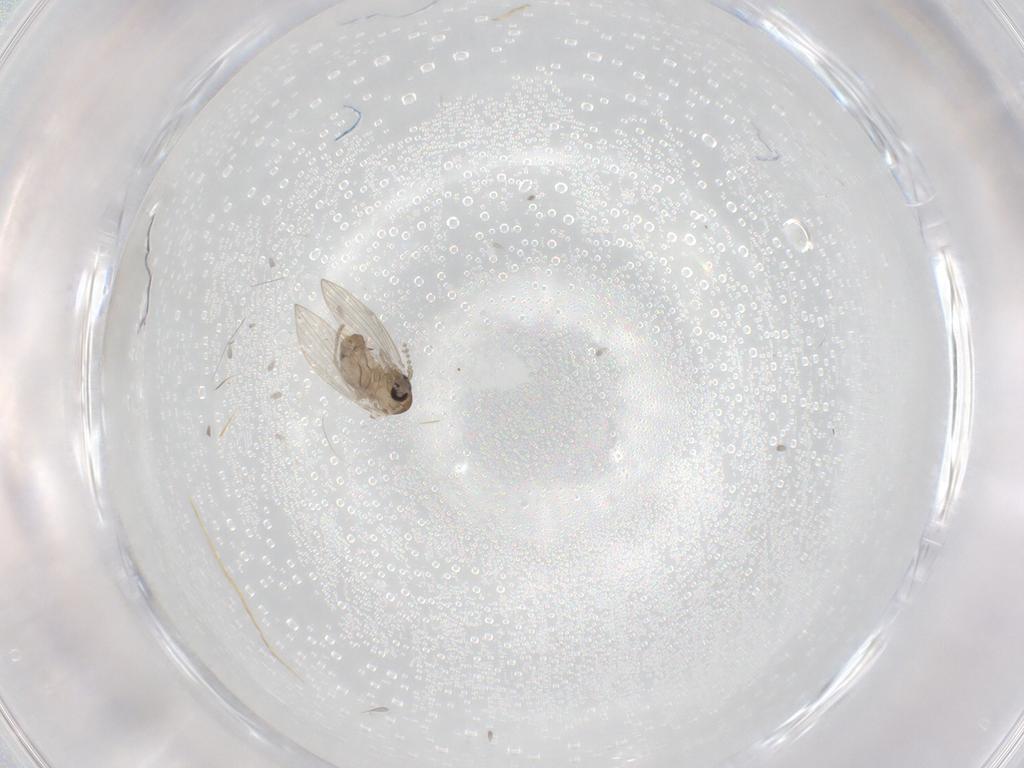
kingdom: Animalia
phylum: Arthropoda
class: Insecta
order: Diptera
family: Ceratopogonidae
